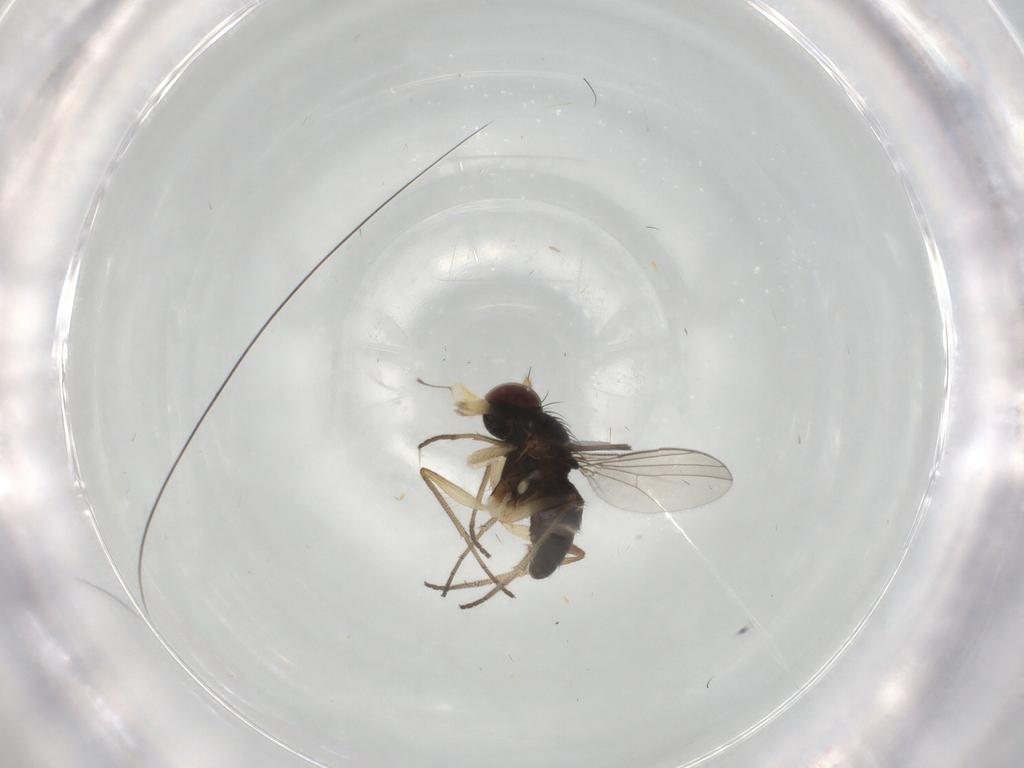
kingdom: Animalia
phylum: Arthropoda
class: Insecta
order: Diptera
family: Dolichopodidae
